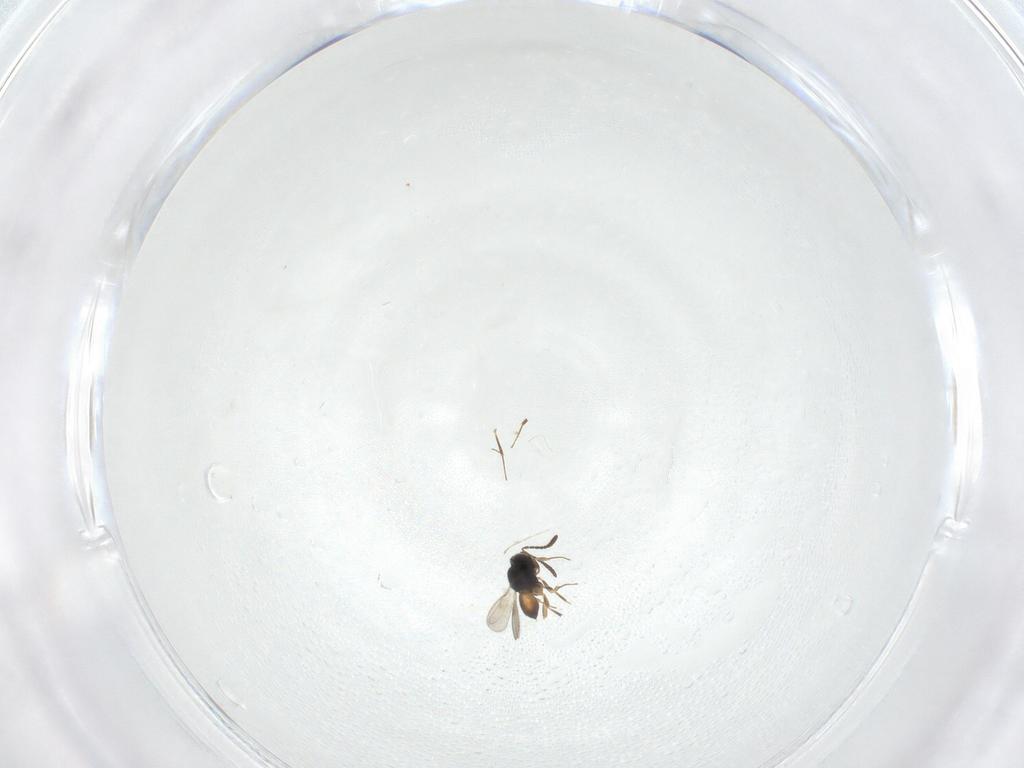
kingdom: Animalia
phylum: Arthropoda
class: Insecta
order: Hymenoptera
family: Scelionidae
